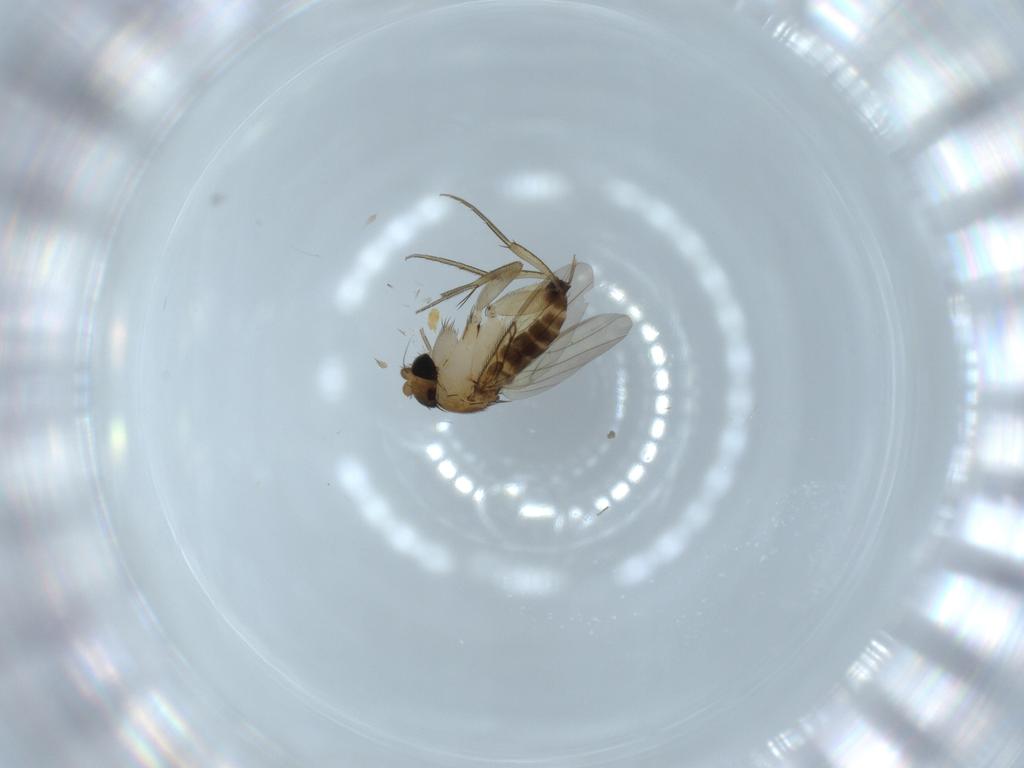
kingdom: Animalia
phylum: Arthropoda
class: Insecta
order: Diptera
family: Phoridae
